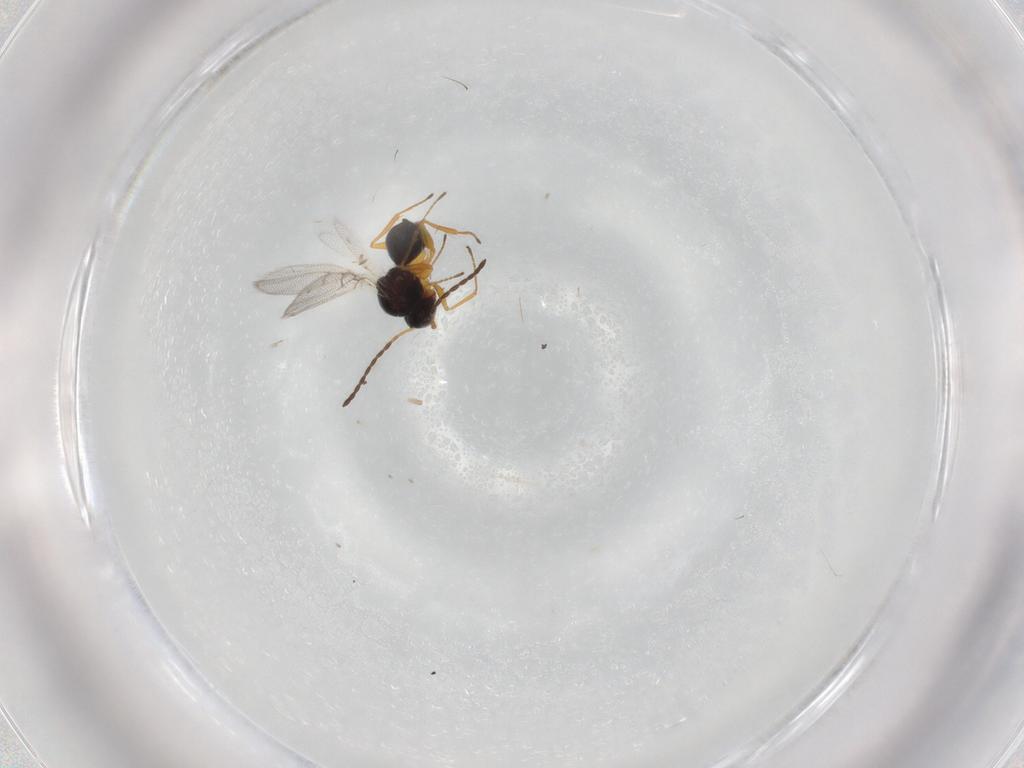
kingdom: Animalia
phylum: Arthropoda
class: Insecta
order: Hymenoptera
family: Figitidae
